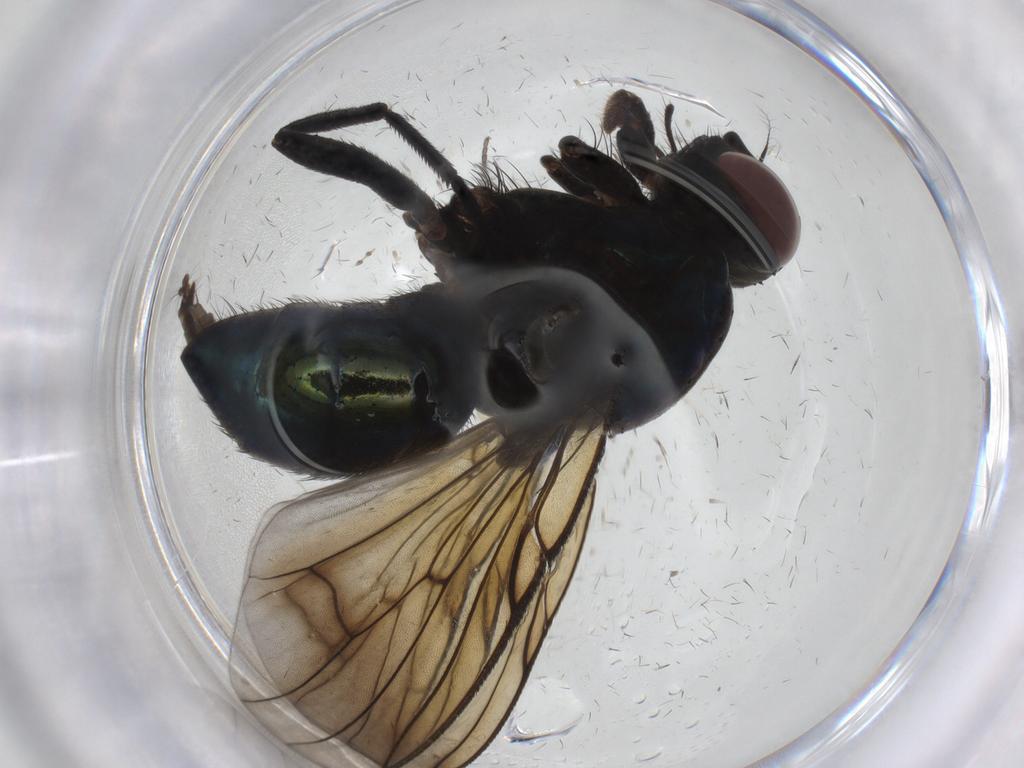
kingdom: Animalia
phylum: Arthropoda
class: Insecta
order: Diptera
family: Muscidae
